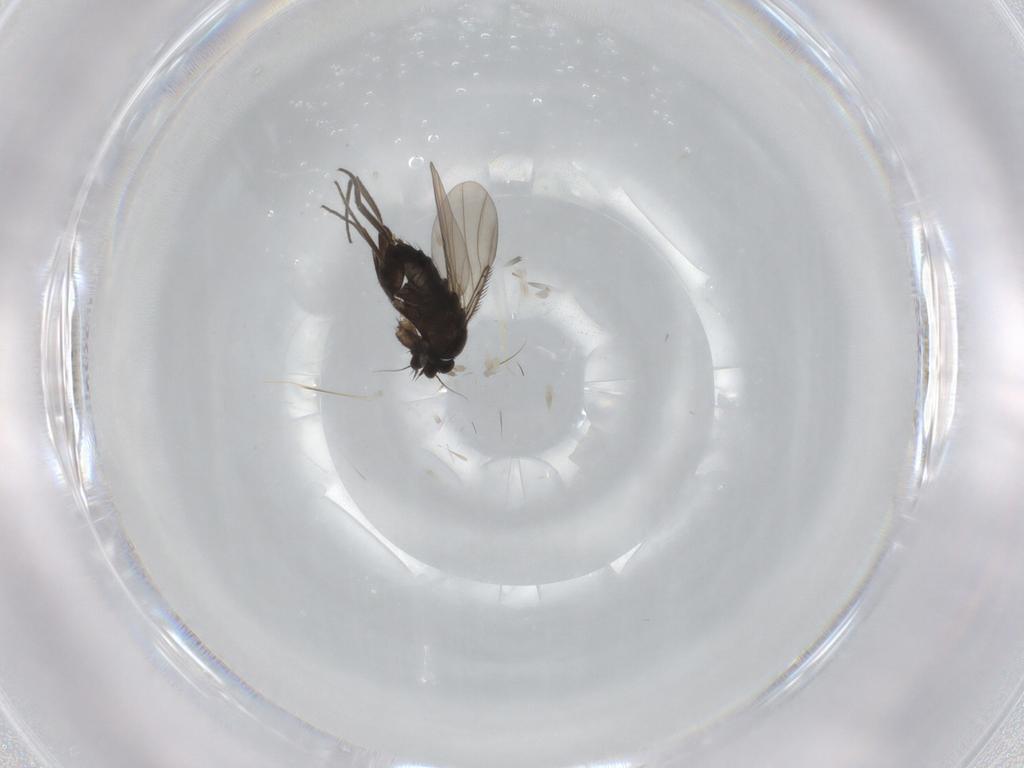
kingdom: Animalia
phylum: Arthropoda
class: Insecta
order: Diptera
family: Phoridae
